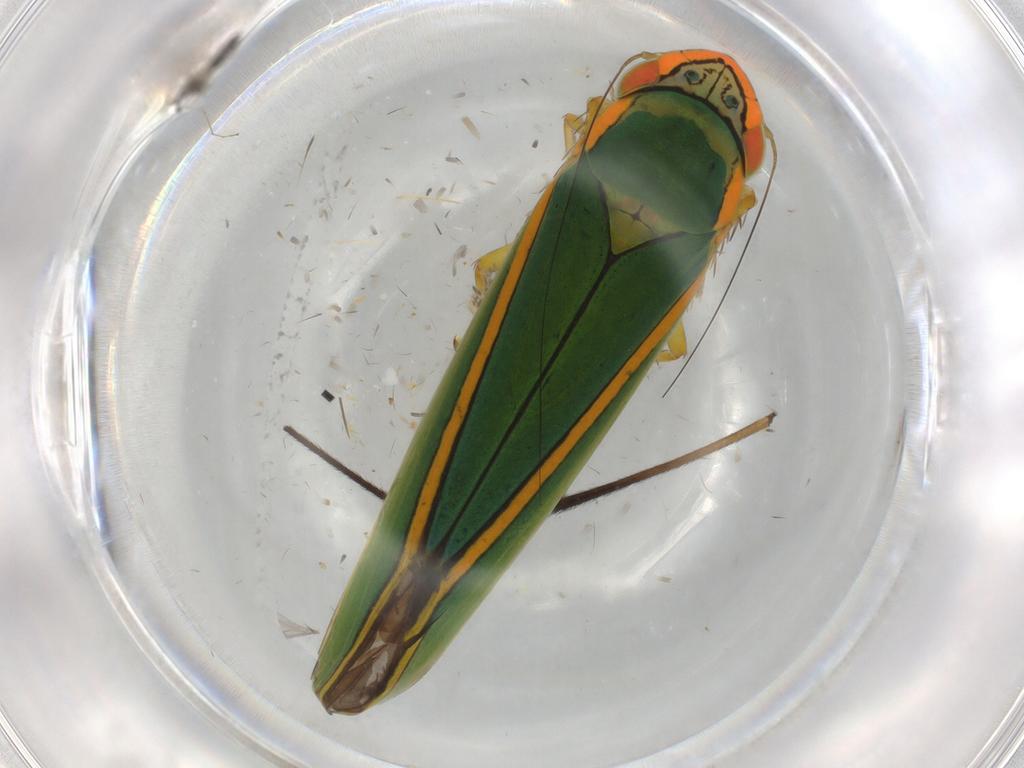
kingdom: Animalia
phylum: Arthropoda
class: Insecta
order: Hemiptera
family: Cicadellidae
